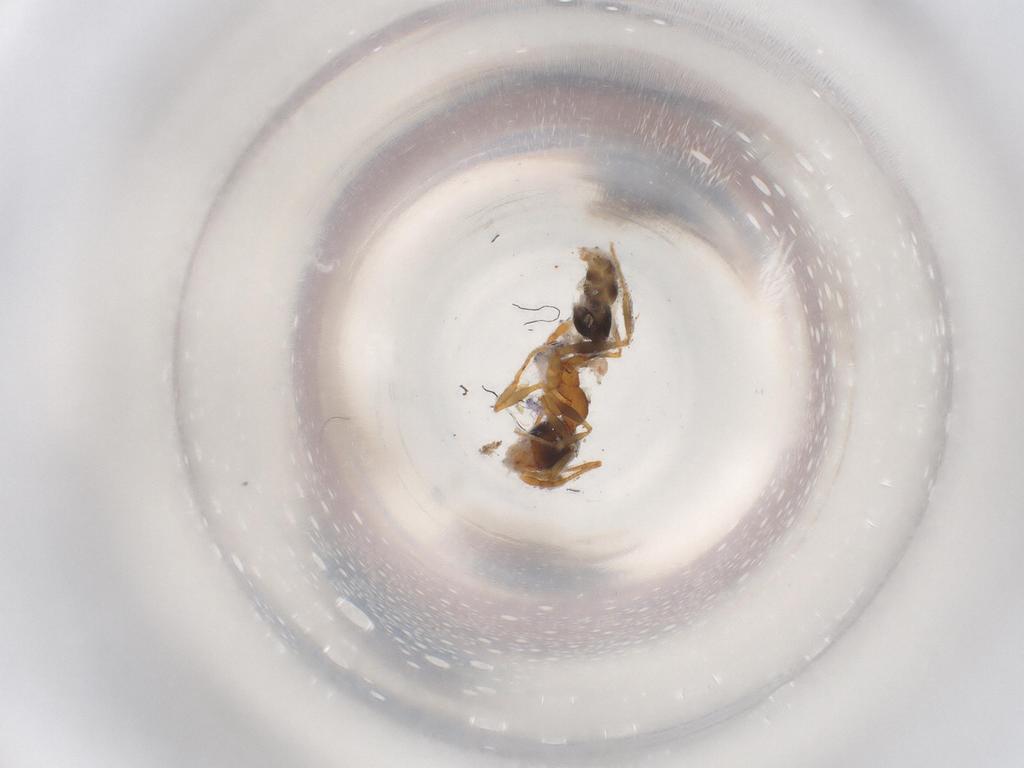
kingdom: Animalia
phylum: Arthropoda
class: Insecta
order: Hymenoptera
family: Formicidae
